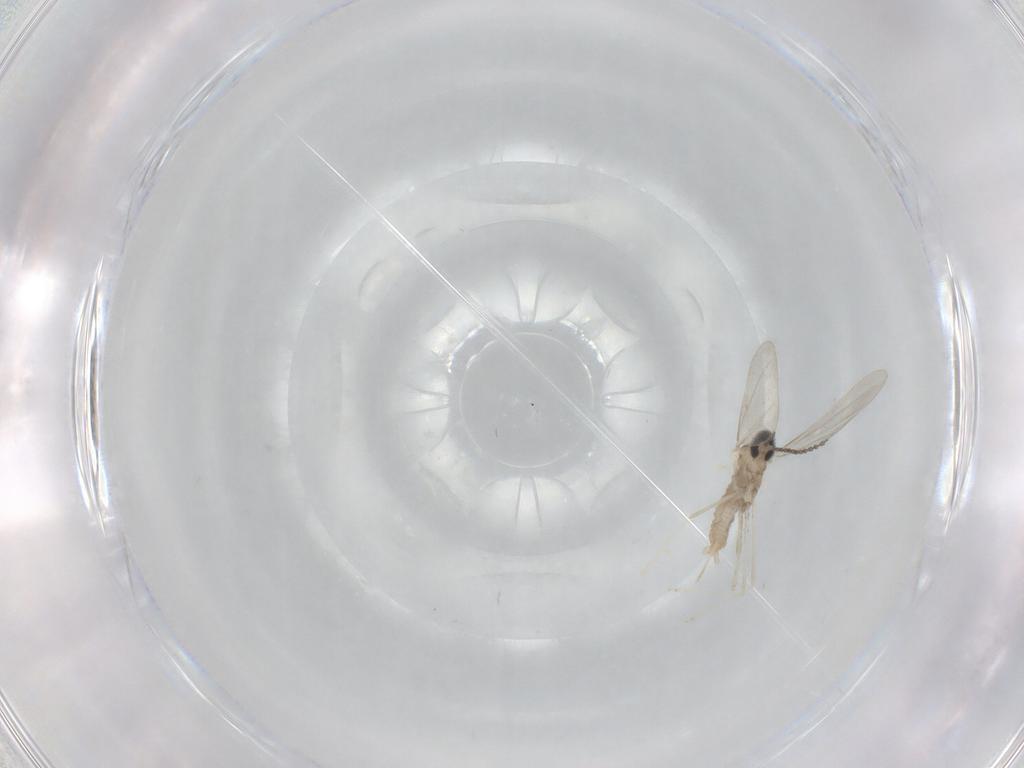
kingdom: Animalia
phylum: Arthropoda
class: Insecta
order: Diptera
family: Cecidomyiidae
